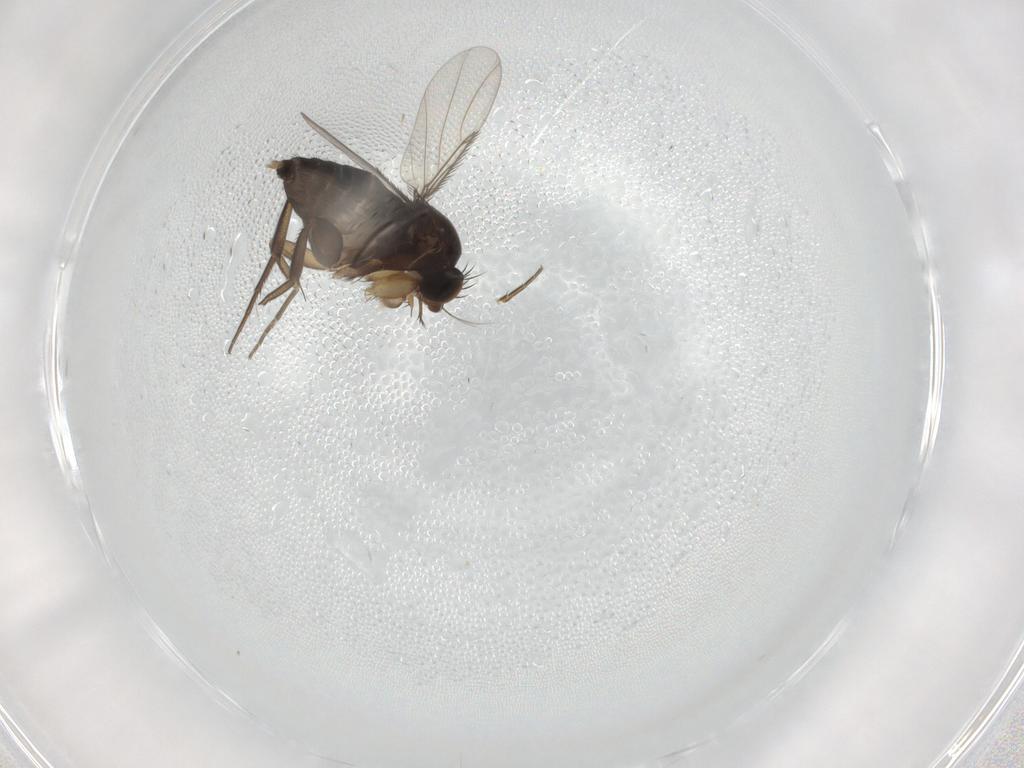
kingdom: Animalia
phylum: Arthropoda
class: Insecta
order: Diptera
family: Phoridae
